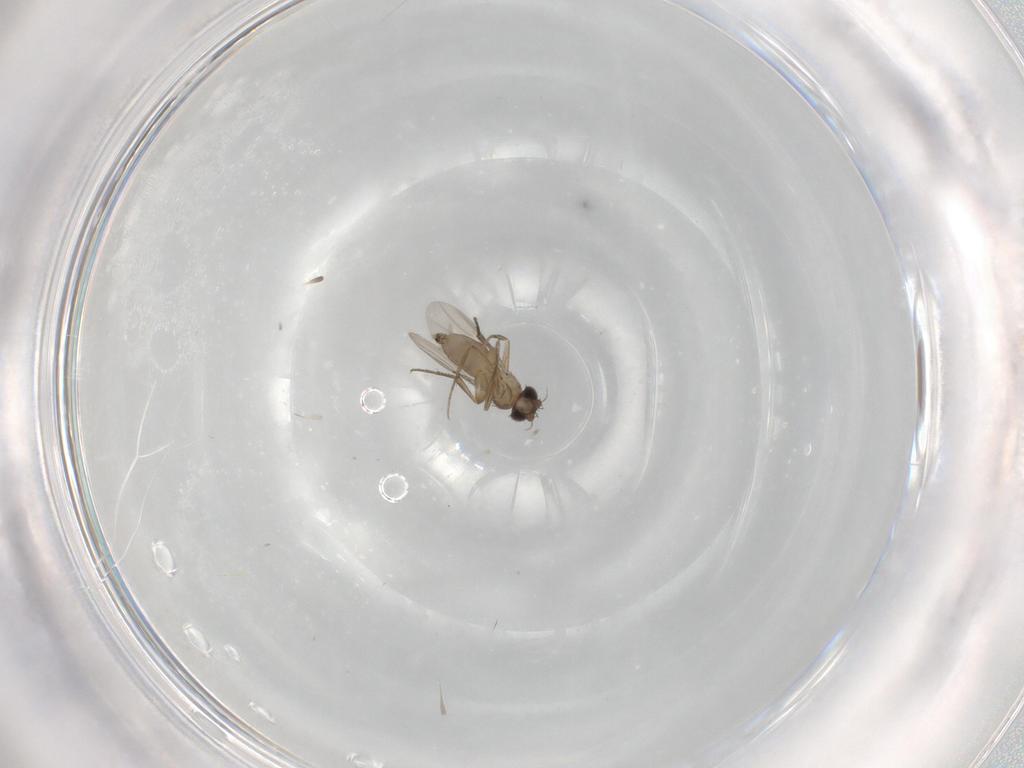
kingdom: Animalia
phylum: Arthropoda
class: Insecta
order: Diptera
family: Phoridae
